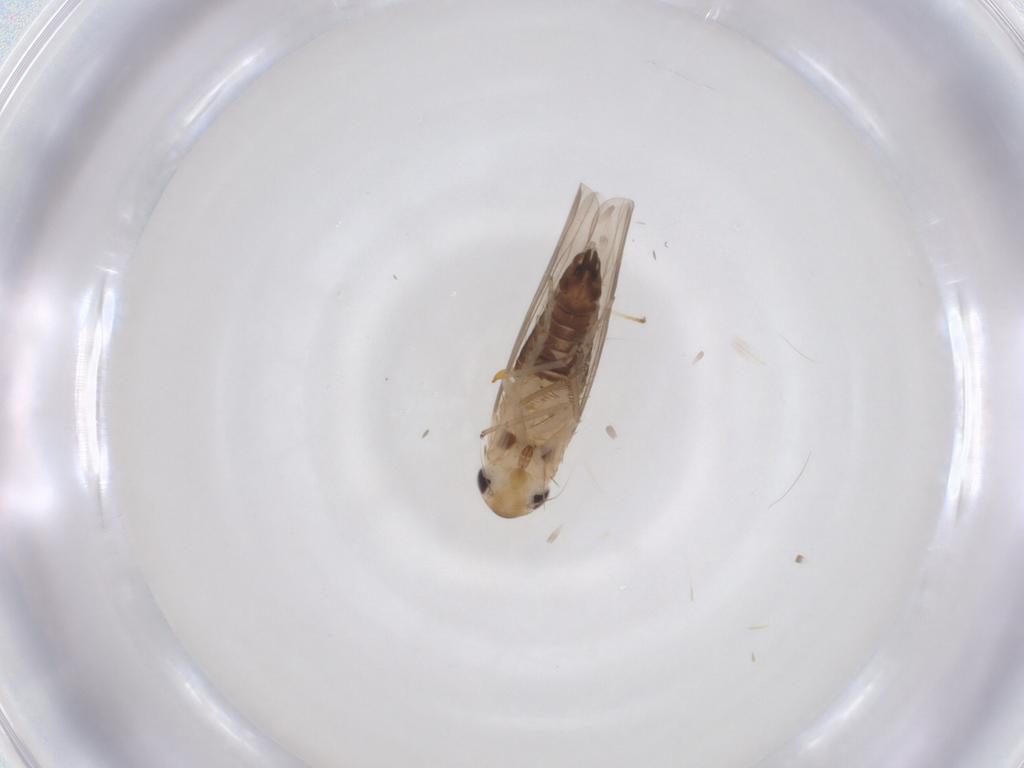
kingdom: Animalia
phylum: Arthropoda
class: Insecta
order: Hemiptera
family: Cicadellidae
